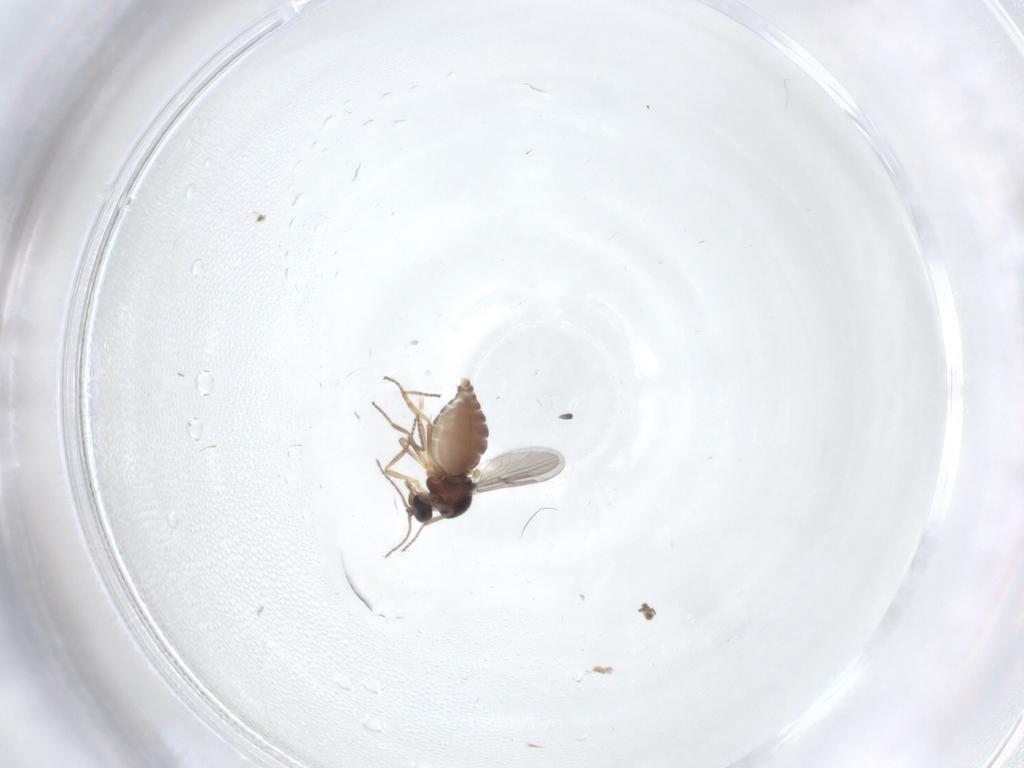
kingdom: Animalia
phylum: Arthropoda
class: Insecta
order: Diptera
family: Ceratopogonidae
